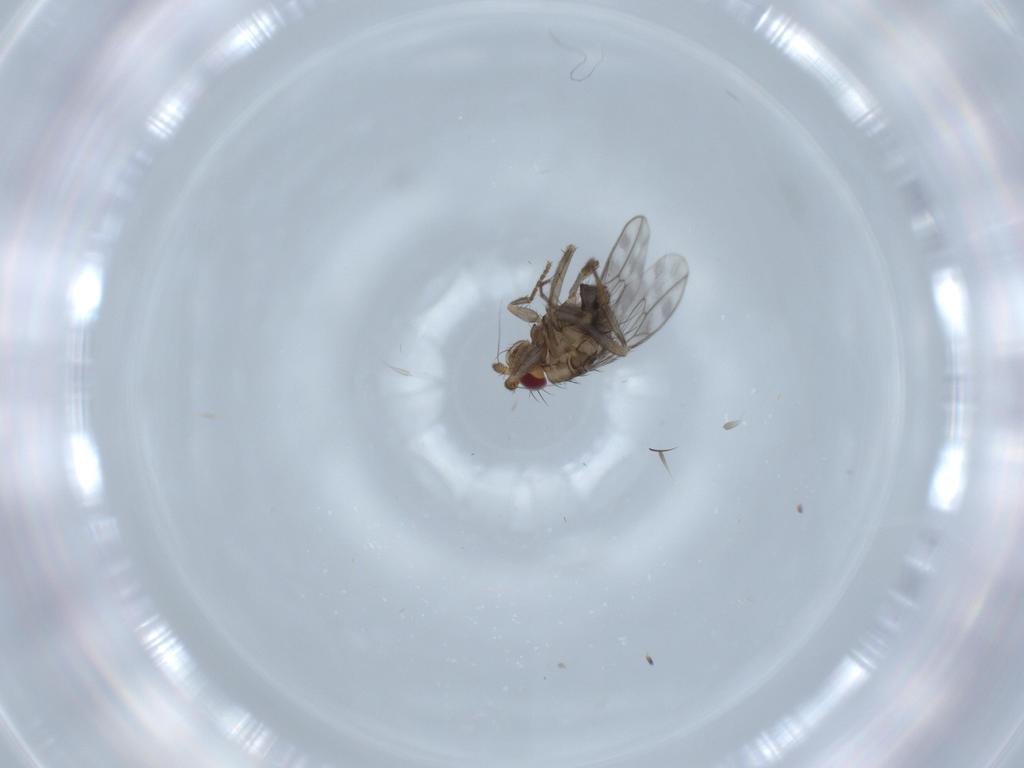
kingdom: Animalia
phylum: Arthropoda
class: Insecta
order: Diptera
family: Sphaeroceridae
